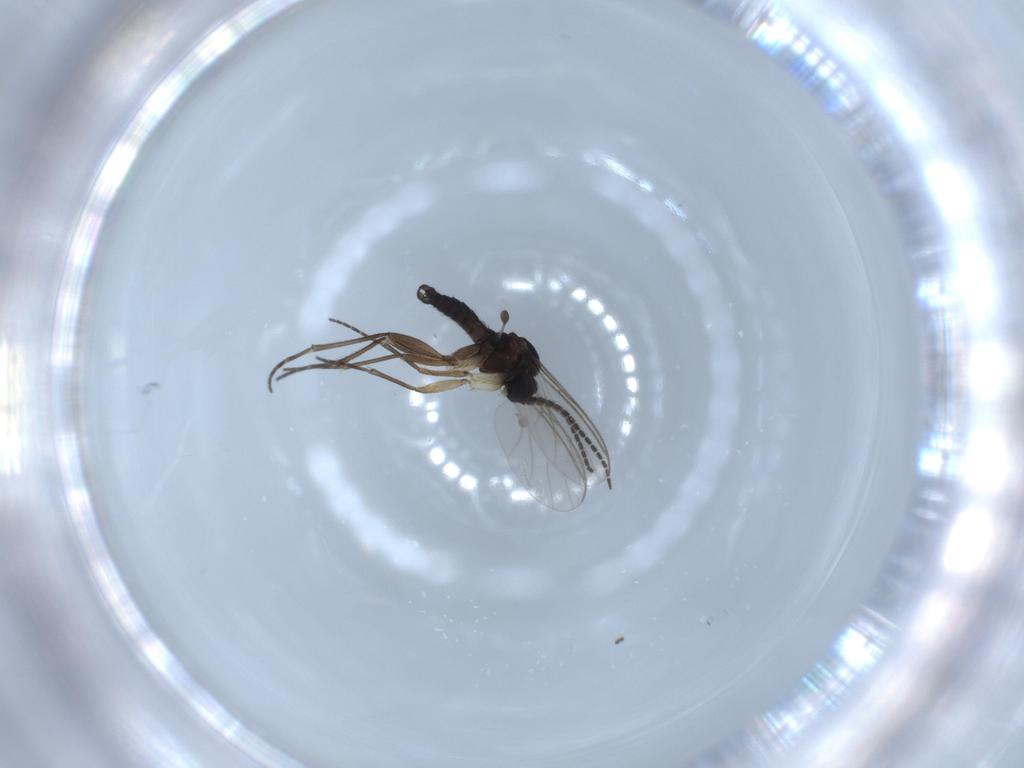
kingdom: Animalia
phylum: Arthropoda
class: Insecta
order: Diptera
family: Sciaridae
